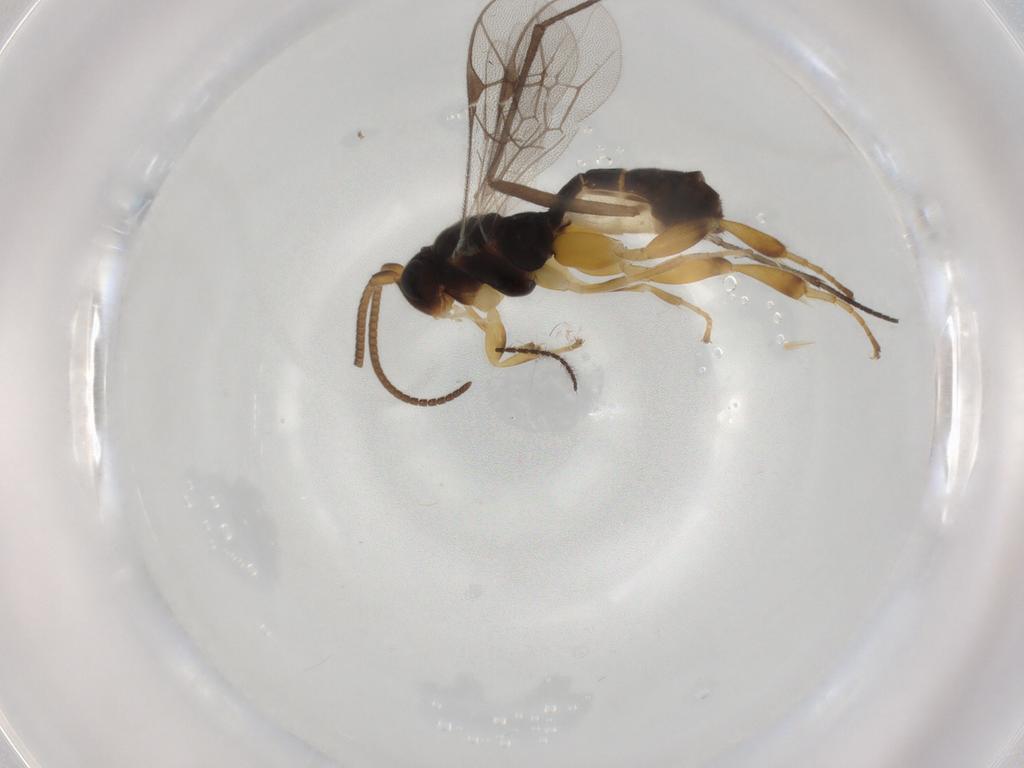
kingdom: Animalia
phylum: Arthropoda
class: Insecta
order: Hymenoptera
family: Ichneumonidae
